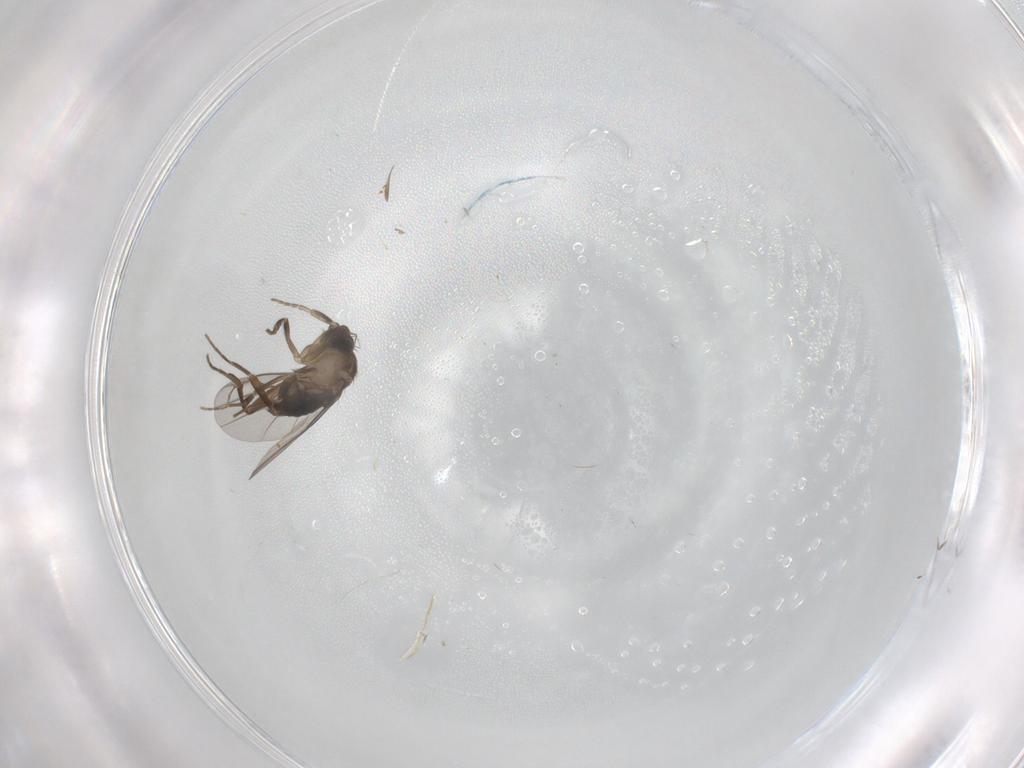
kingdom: Animalia
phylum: Arthropoda
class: Insecta
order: Diptera
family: Phoridae
